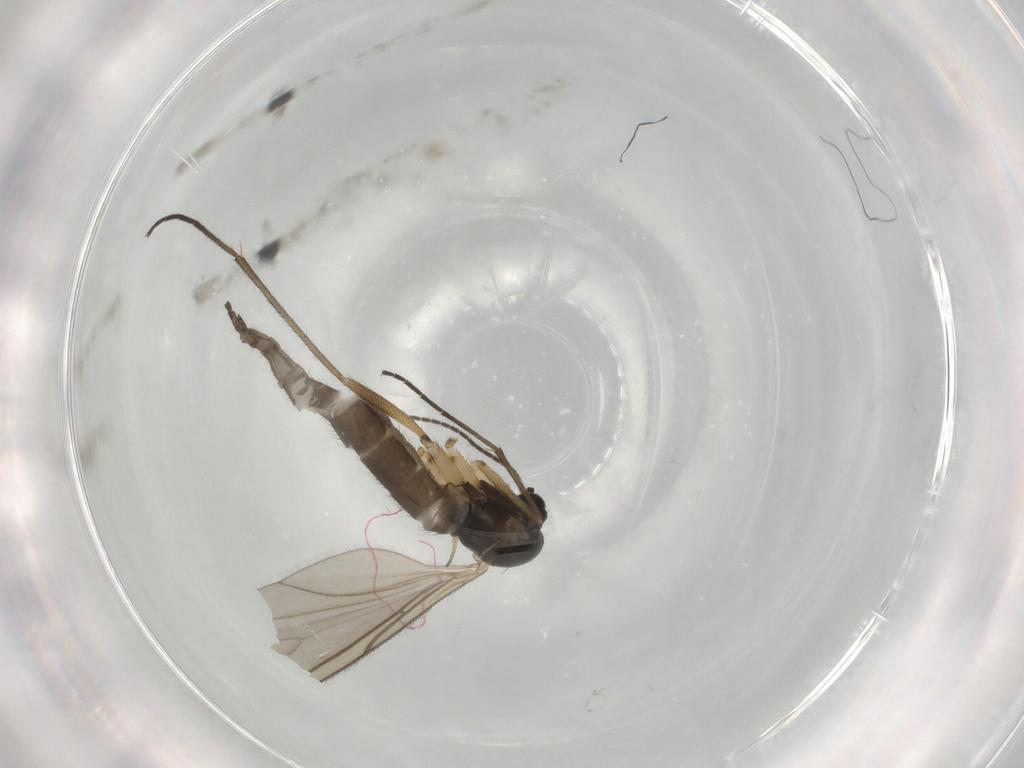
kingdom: Animalia
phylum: Arthropoda
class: Insecta
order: Diptera
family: Sciaridae
